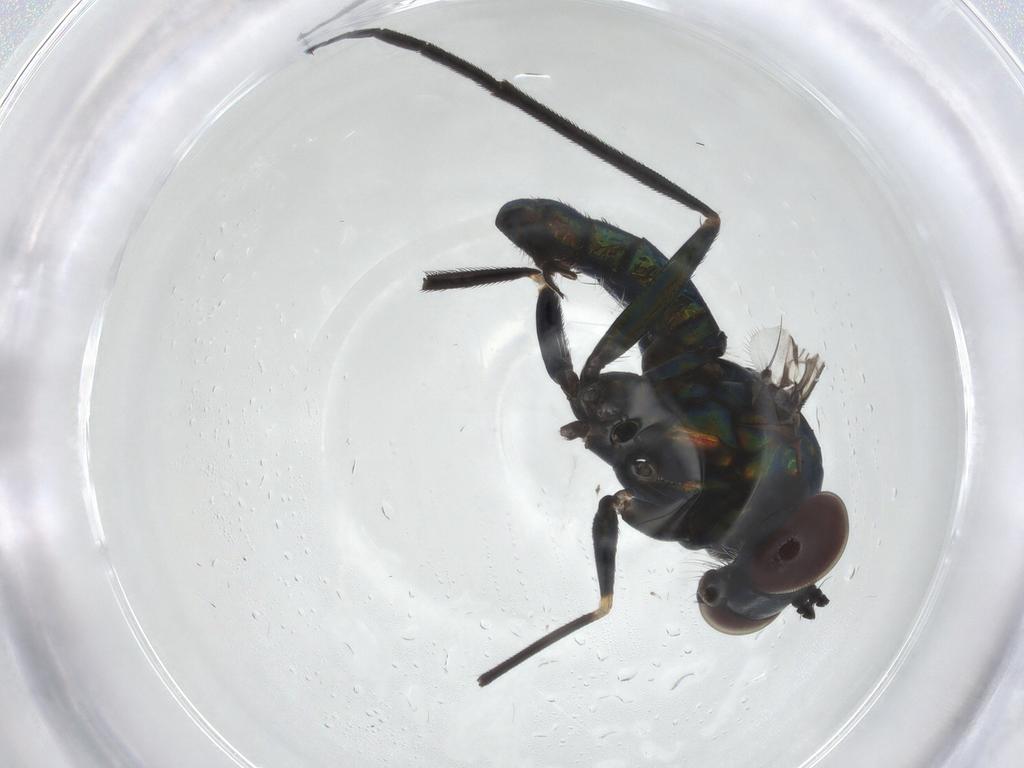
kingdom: Animalia
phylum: Arthropoda
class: Insecta
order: Diptera
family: Dolichopodidae
